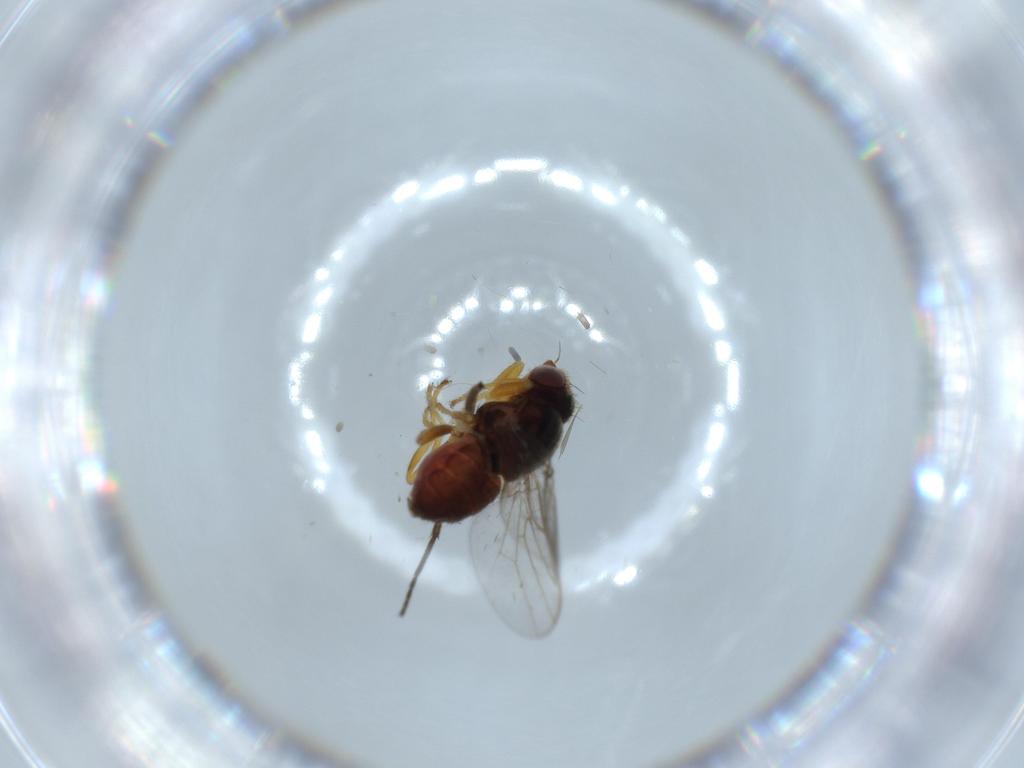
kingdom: Animalia
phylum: Arthropoda
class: Insecta
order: Diptera
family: Chloropidae
